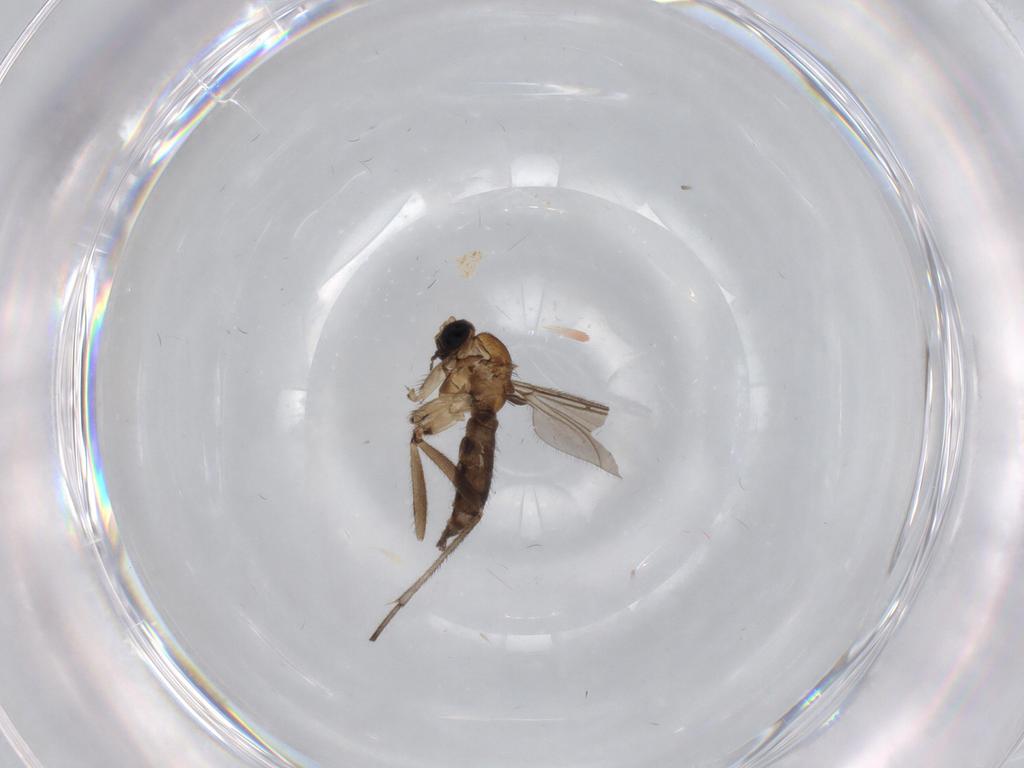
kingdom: Animalia
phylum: Arthropoda
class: Insecta
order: Diptera
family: Sciaridae
